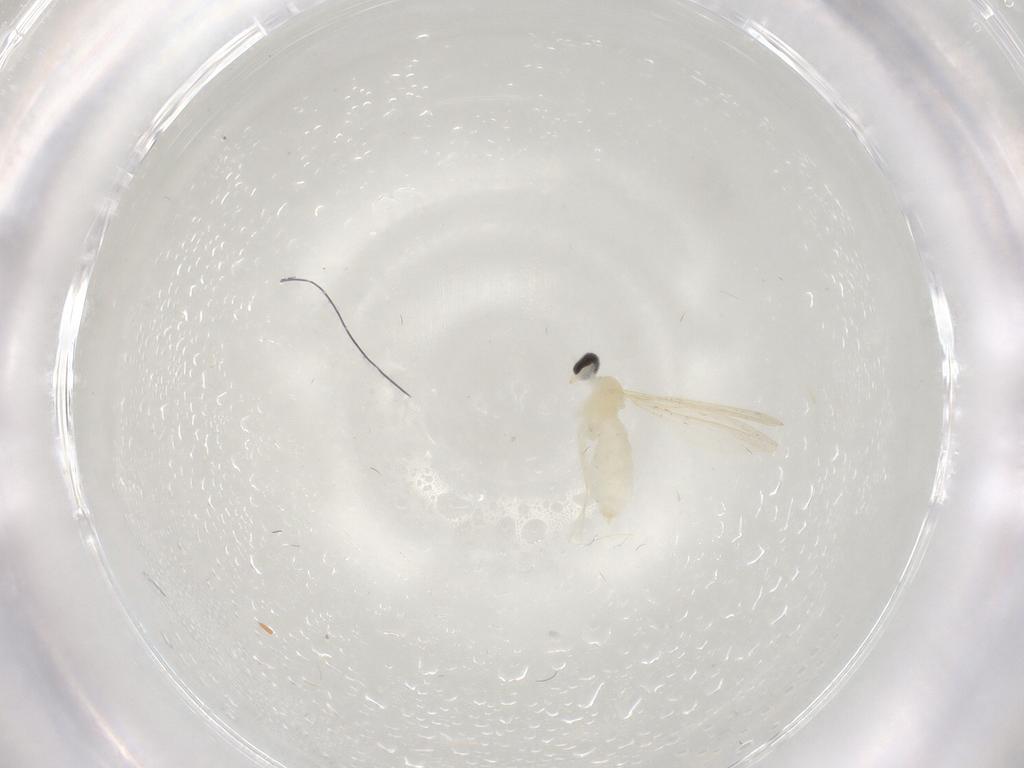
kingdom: Animalia
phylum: Arthropoda
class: Insecta
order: Diptera
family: Cecidomyiidae
